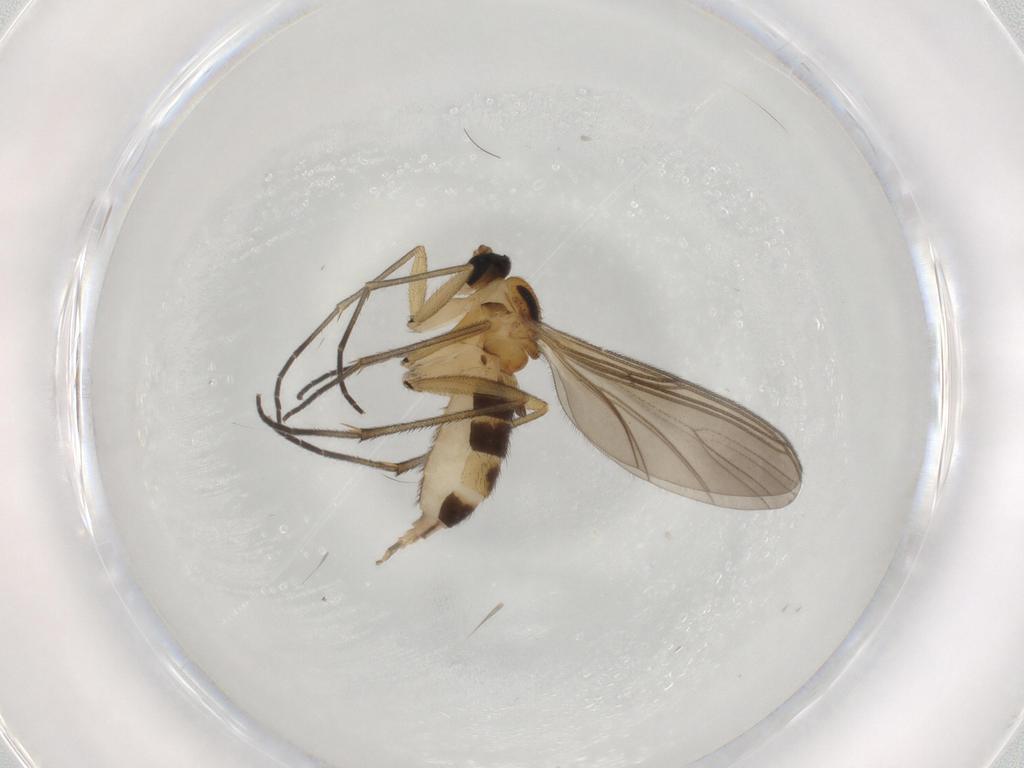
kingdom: Animalia
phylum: Arthropoda
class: Insecta
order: Diptera
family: Sciaridae
